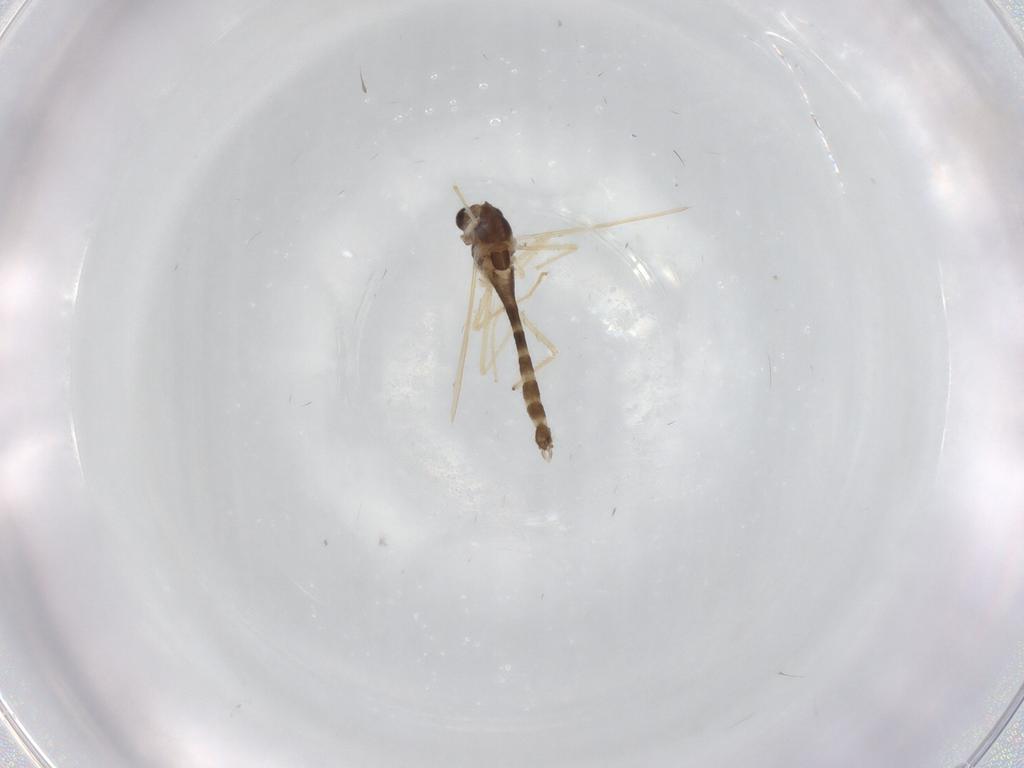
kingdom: Animalia
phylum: Arthropoda
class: Insecta
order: Diptera
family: Chironomidae
